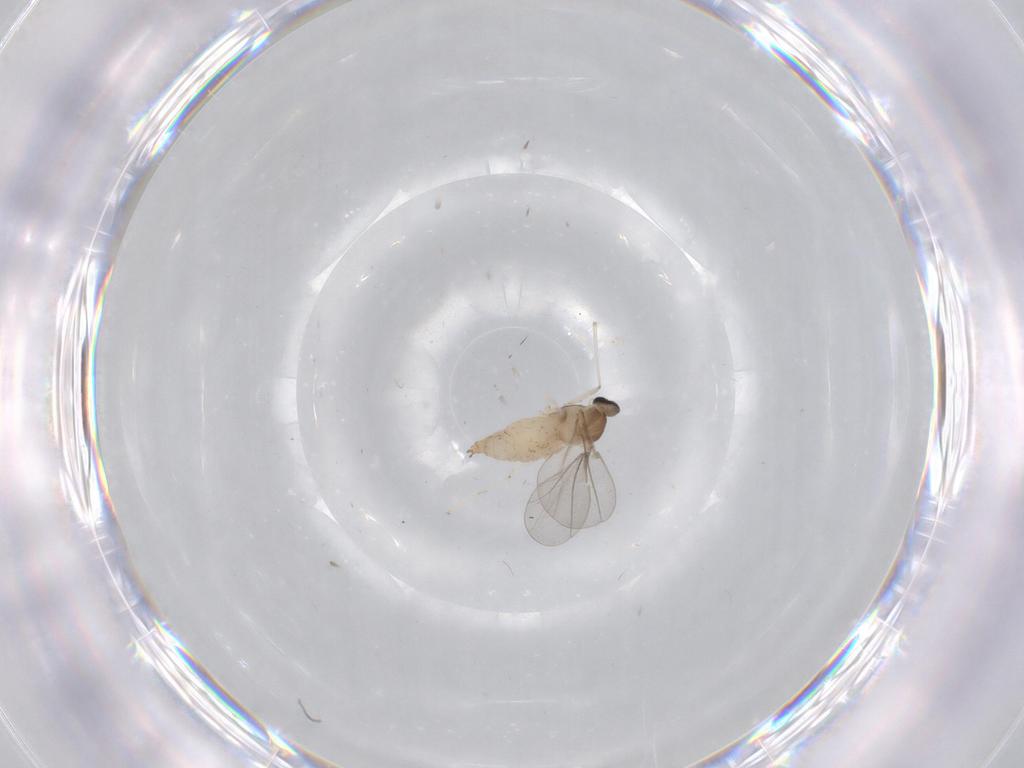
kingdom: Animalia
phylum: Arthropoda
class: Insecta
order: Diptera
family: Cecidomyiidae
